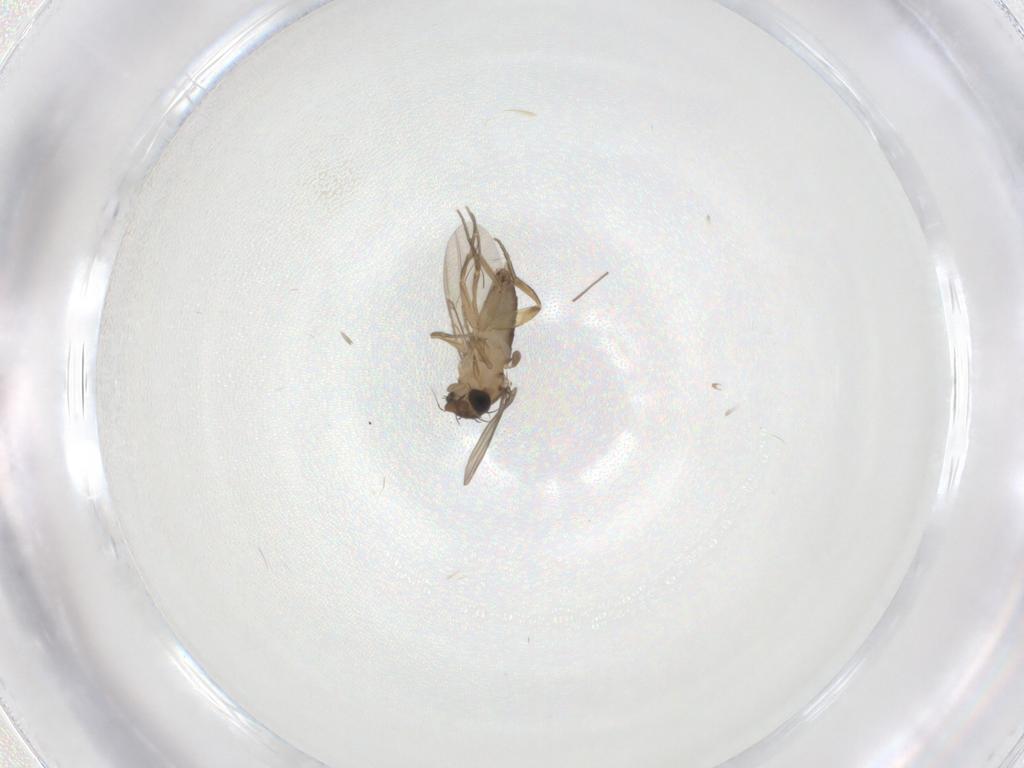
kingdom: Animalia
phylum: Arthropoda
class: Insecta
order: Diptera
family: Phoridae
